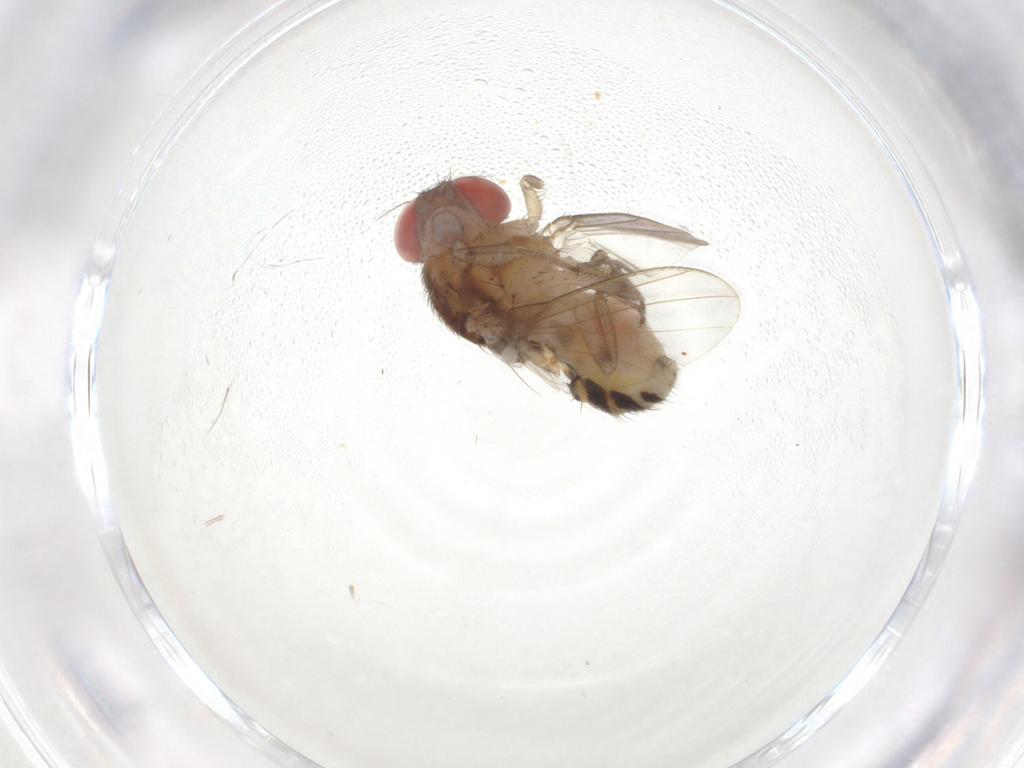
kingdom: Animalia
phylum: Arthropoda
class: Insecta
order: Diptera
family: Drosophilidae
